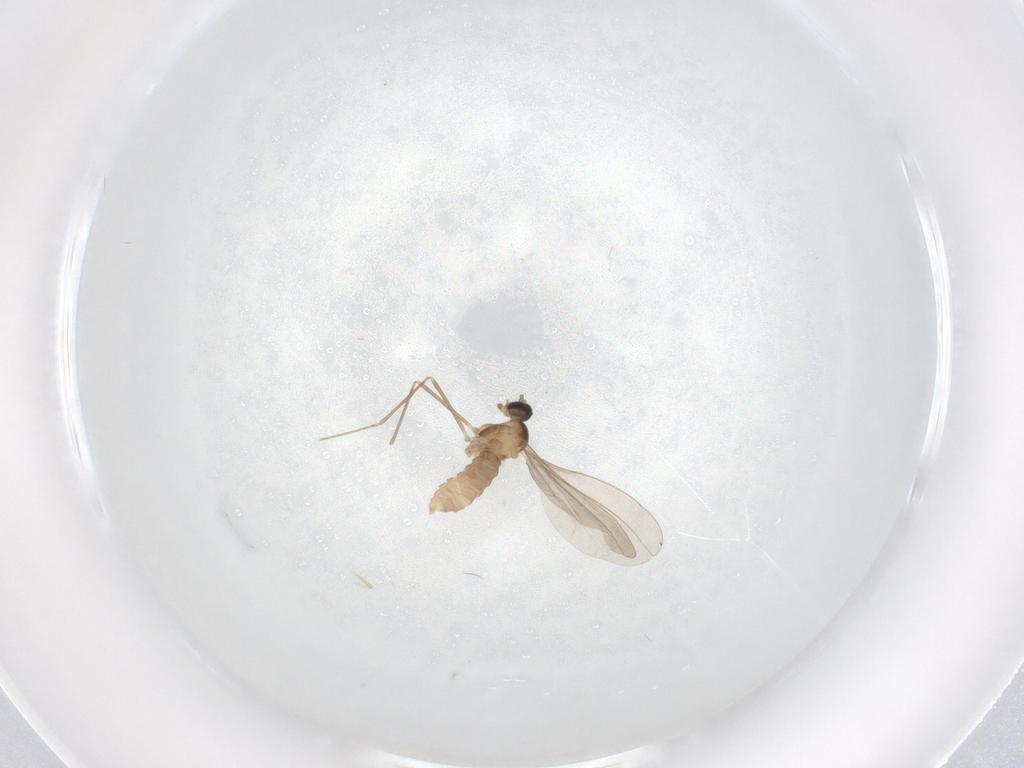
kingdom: Animalia
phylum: Arthropoda
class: Insecta
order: Diptera
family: Cecidomyiidae
